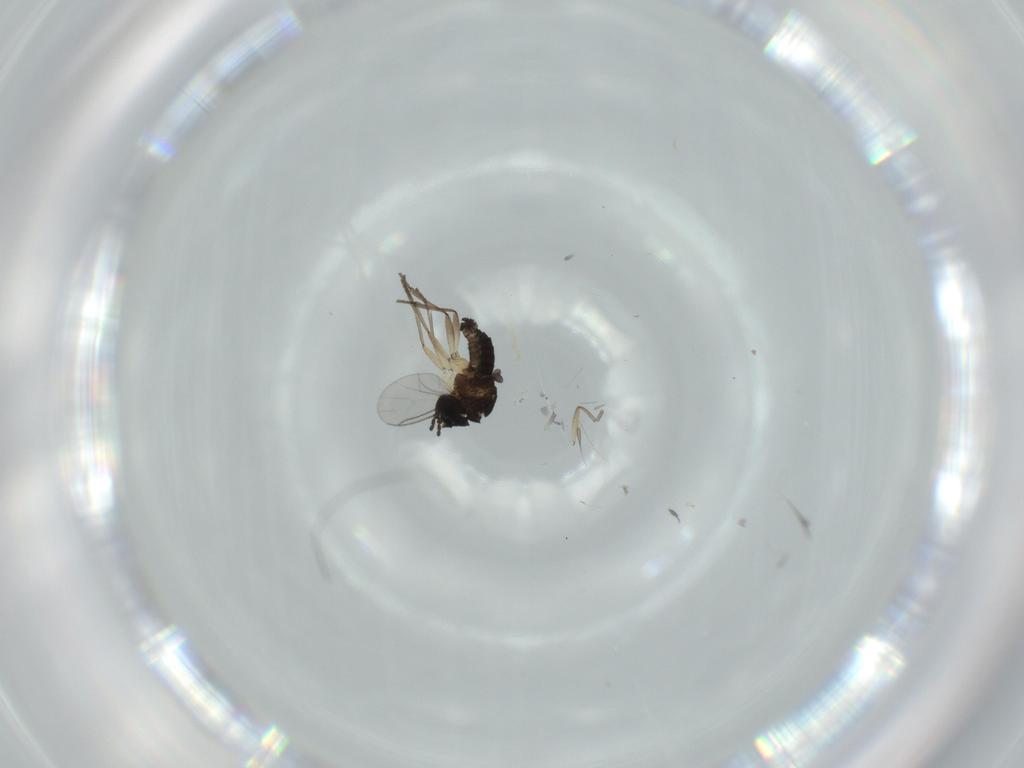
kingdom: Animalia
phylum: Arthropoda
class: Insecta
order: Diptera
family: Sciaridae
